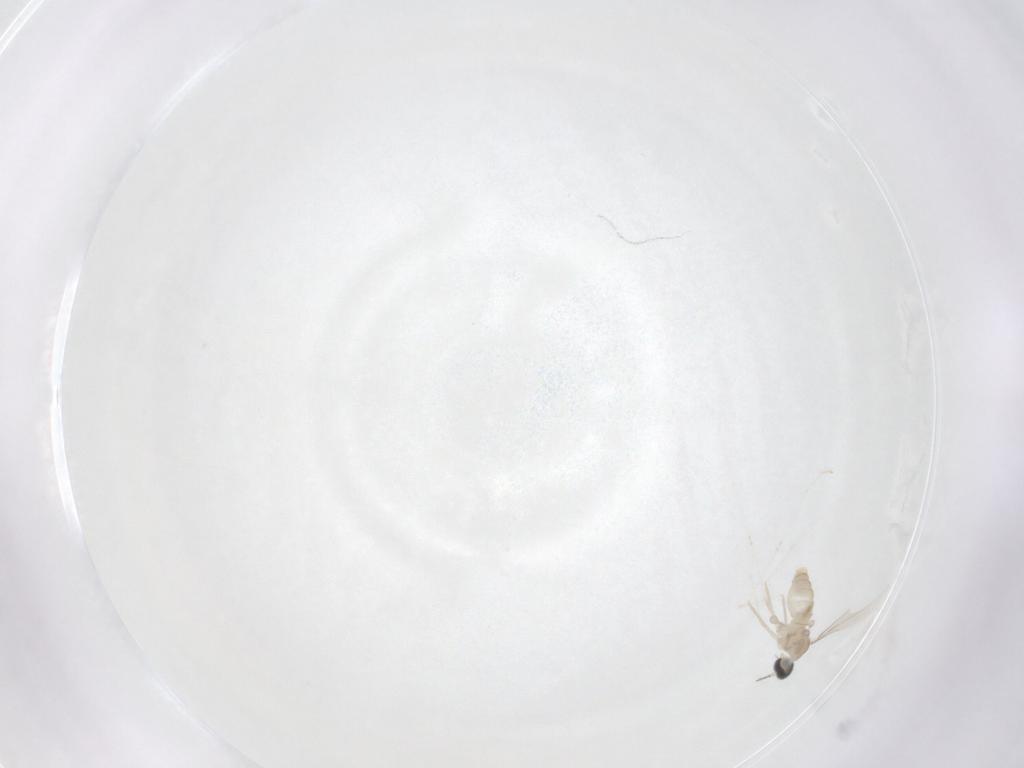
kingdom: Animalia
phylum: Arthropoda
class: Insecta
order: Diptera
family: Cecidomyiidae
